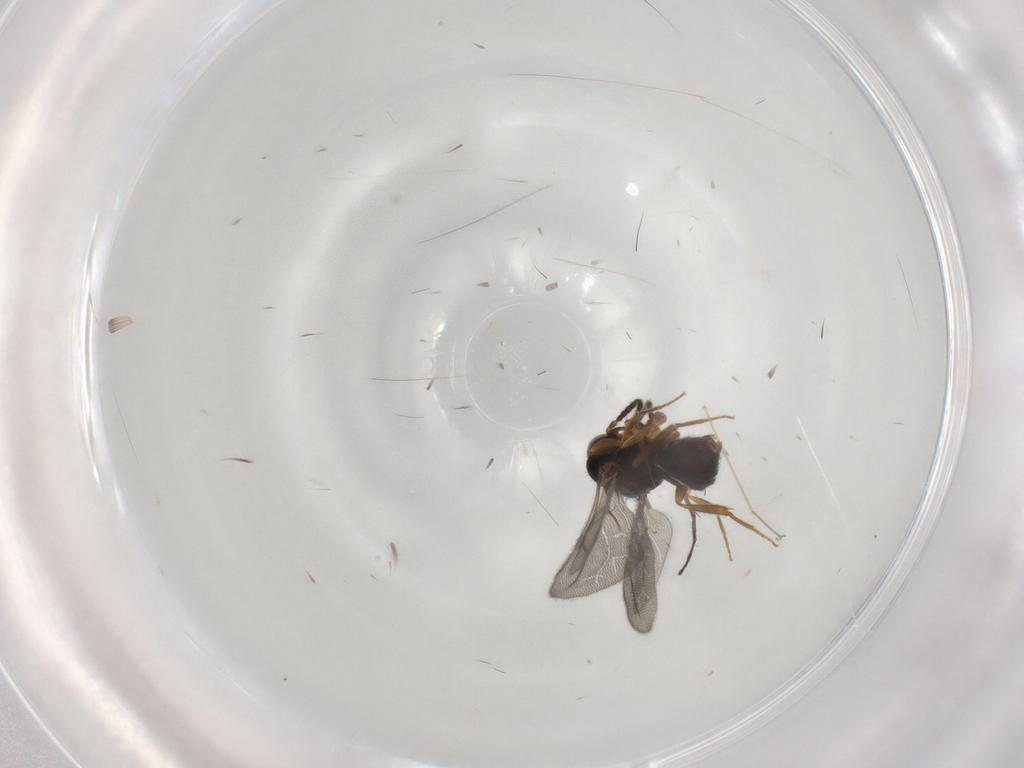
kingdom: Animalia
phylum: Arthropoda
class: Insecta
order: Hymenoptera
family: Bethylidae
